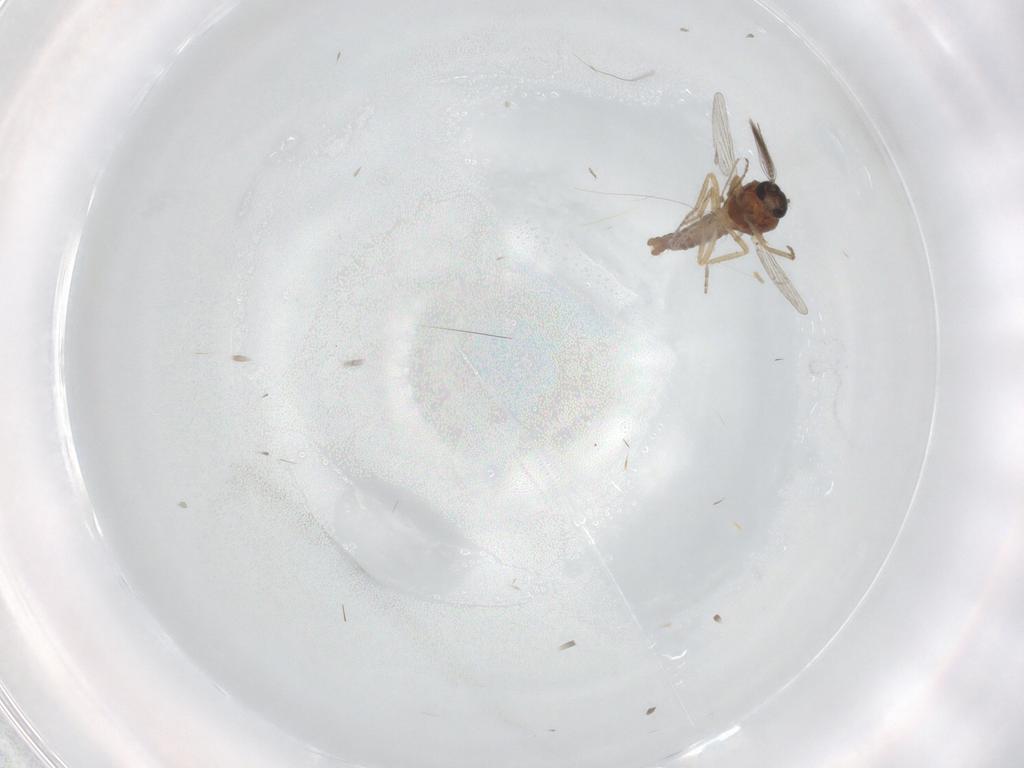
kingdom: Animalia
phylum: Arthropoda
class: Insecta
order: Diptera
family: Ceratopogonidae
